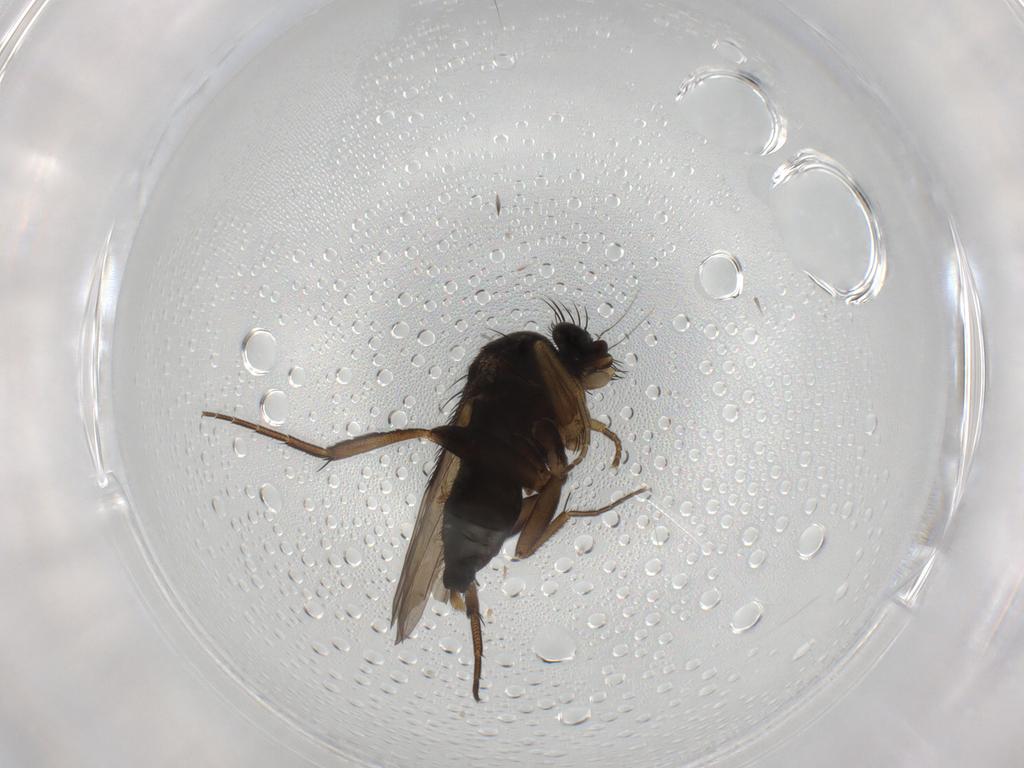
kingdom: Animalia
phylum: Arthropoda
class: Insecta
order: Diptera
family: Phoridae
